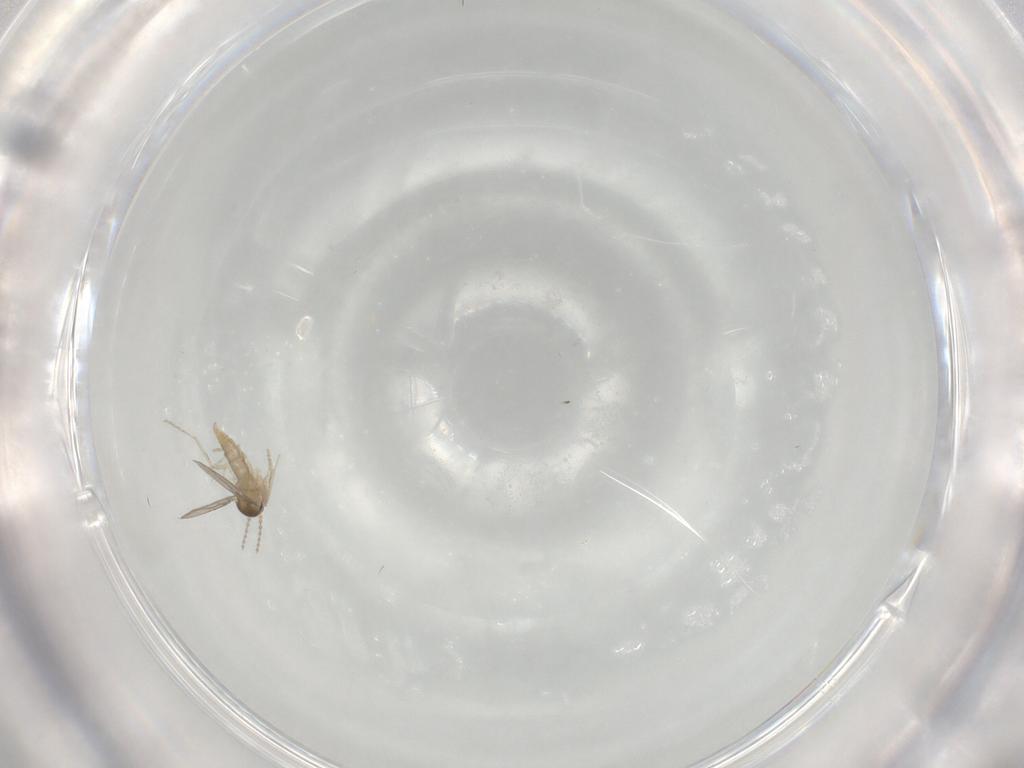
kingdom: Animalia
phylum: Arthropoda
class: Insecta
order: Diptera
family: Cecidomyiidae
